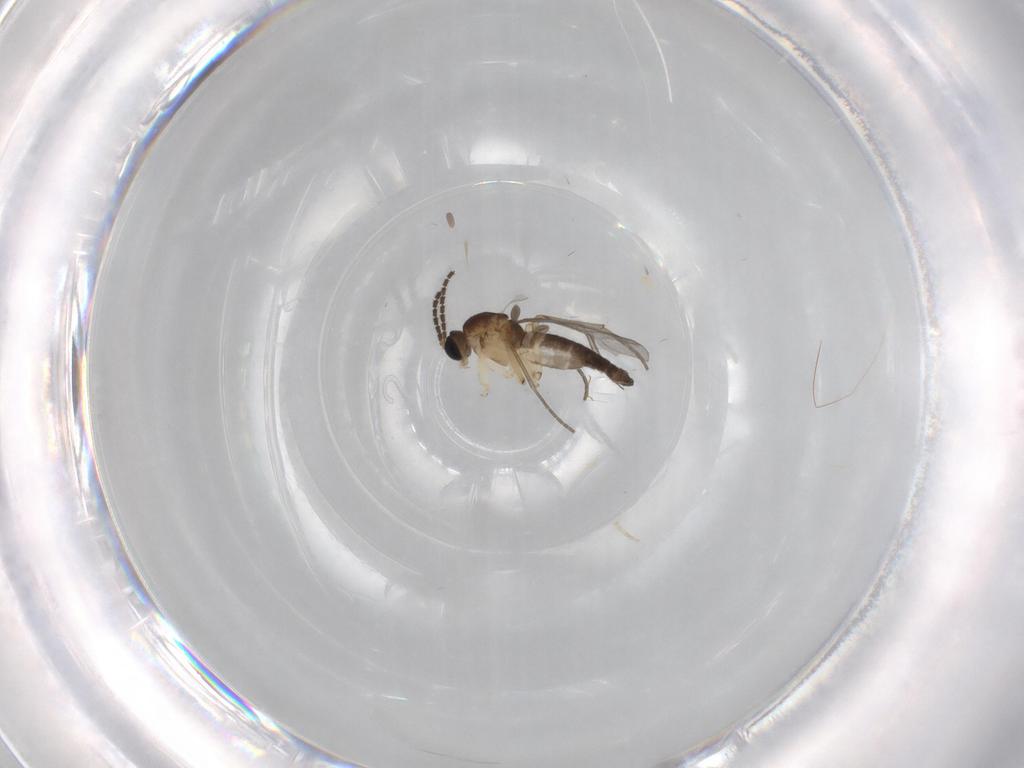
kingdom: Animalia
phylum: Arthropoda
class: Insecta
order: Diptera
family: Sciaridae
